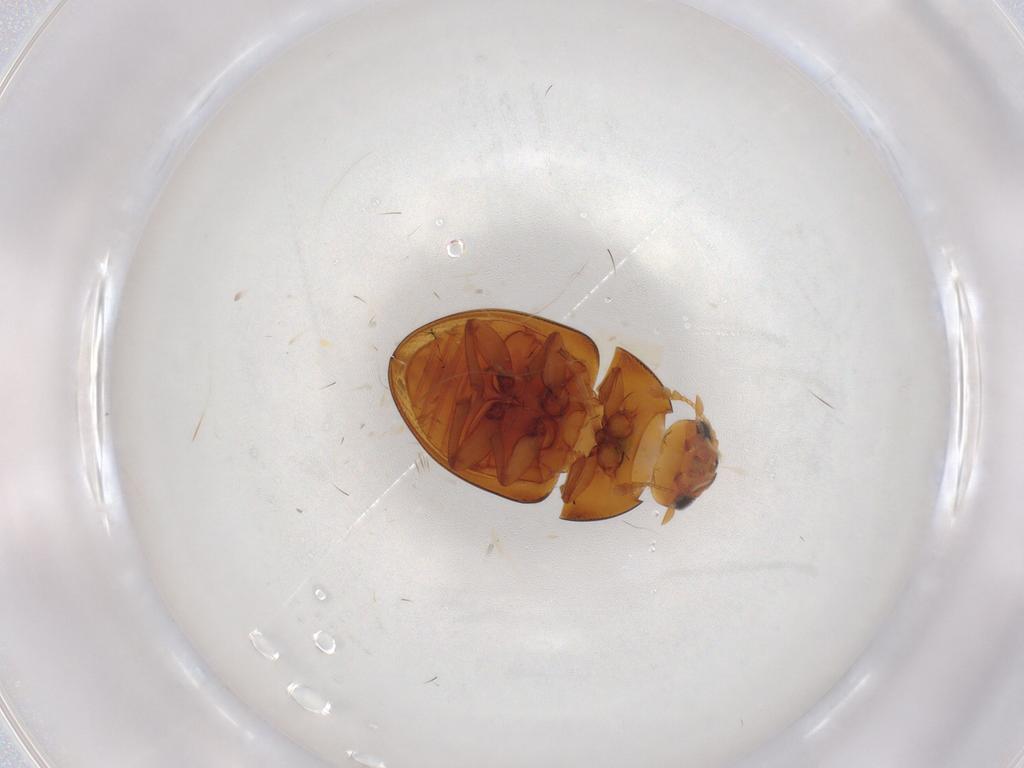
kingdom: Animalia
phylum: Arthropoda
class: Insecta
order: Coleoptera
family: Phalacridae
